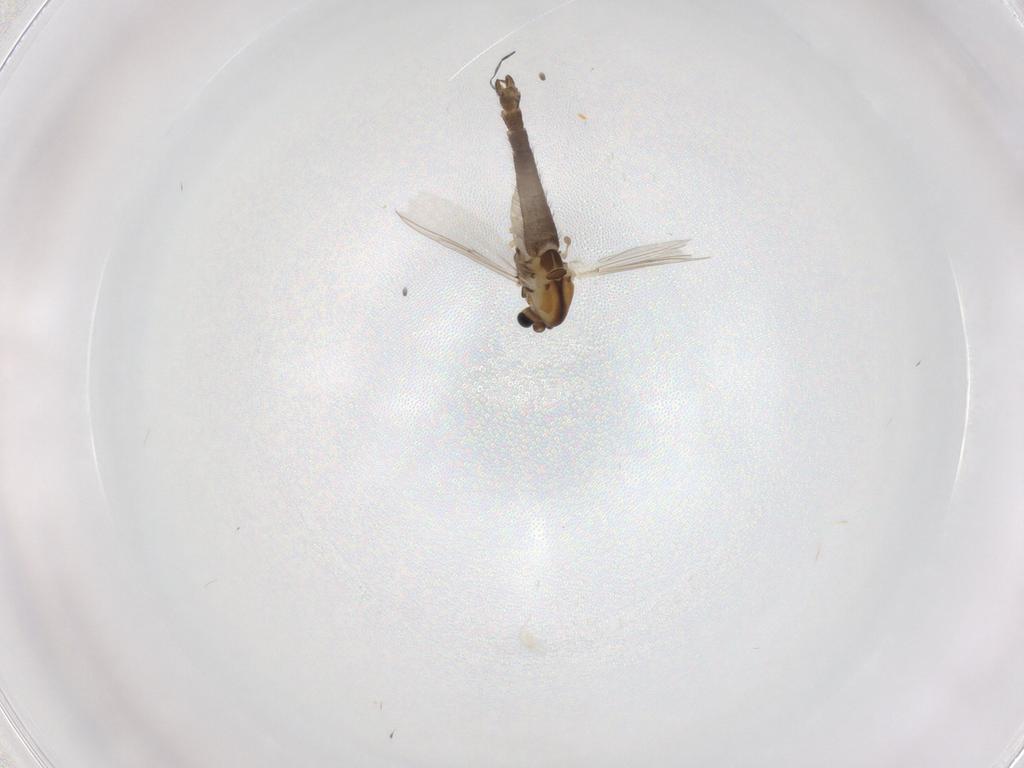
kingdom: Animalia
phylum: Arthropoda
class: Insecta
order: Diptera
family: Chironomidae
